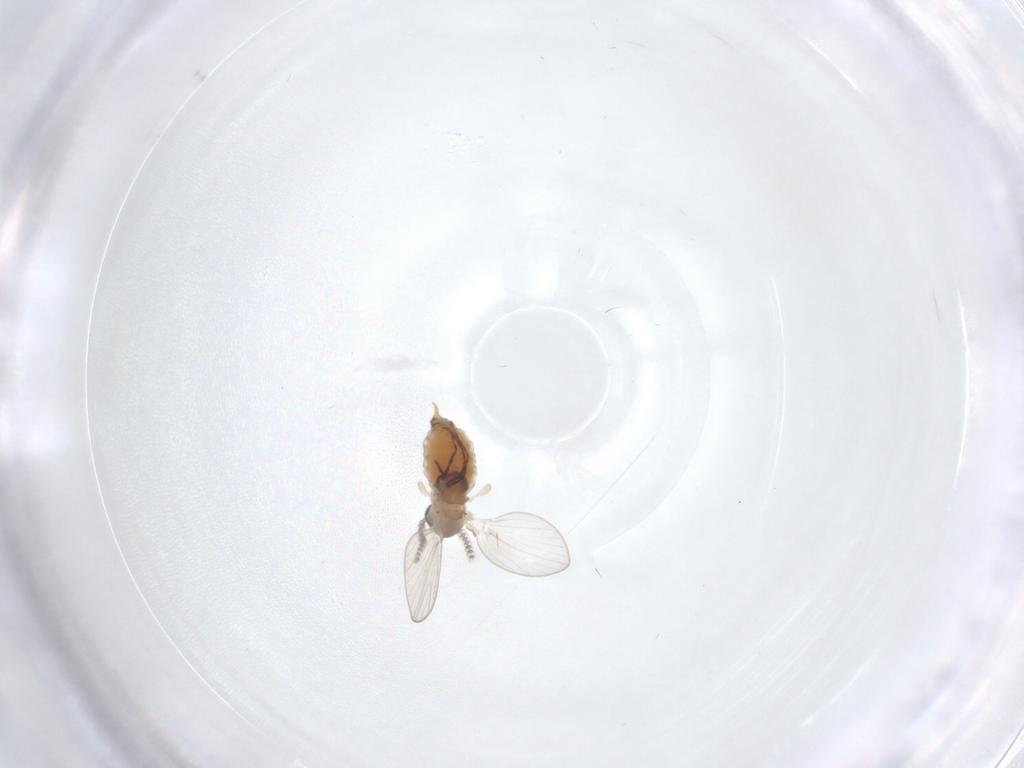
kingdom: Animalia
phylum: Arthropoda
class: Insecta
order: Diptera
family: Psychodidae
